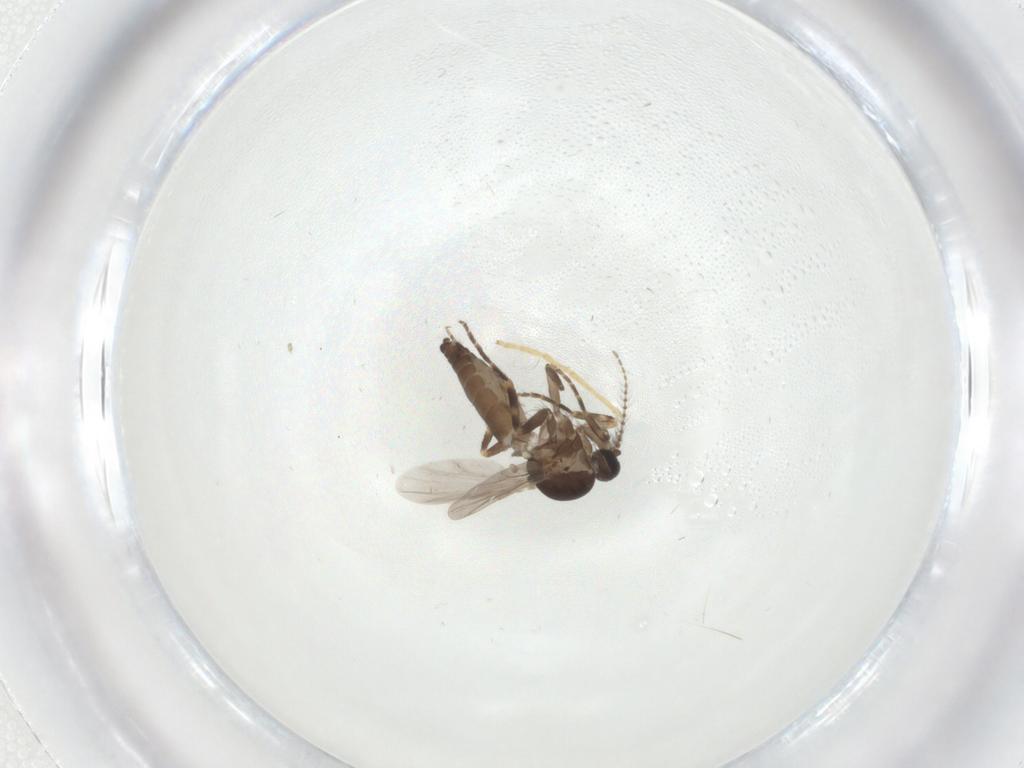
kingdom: Animalia
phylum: Arthropoda
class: Insecta
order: Diptera
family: Chironomidae
